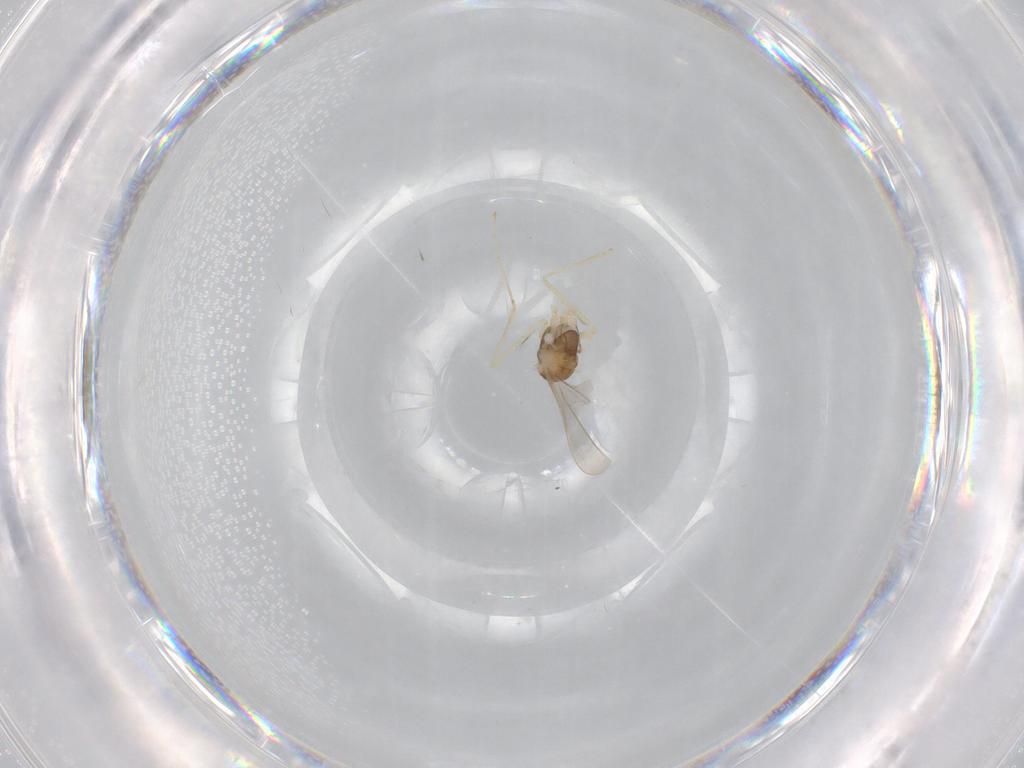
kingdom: Animalia
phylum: Arthropoda
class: Insecta
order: Diptera
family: Cecidomyiidae
